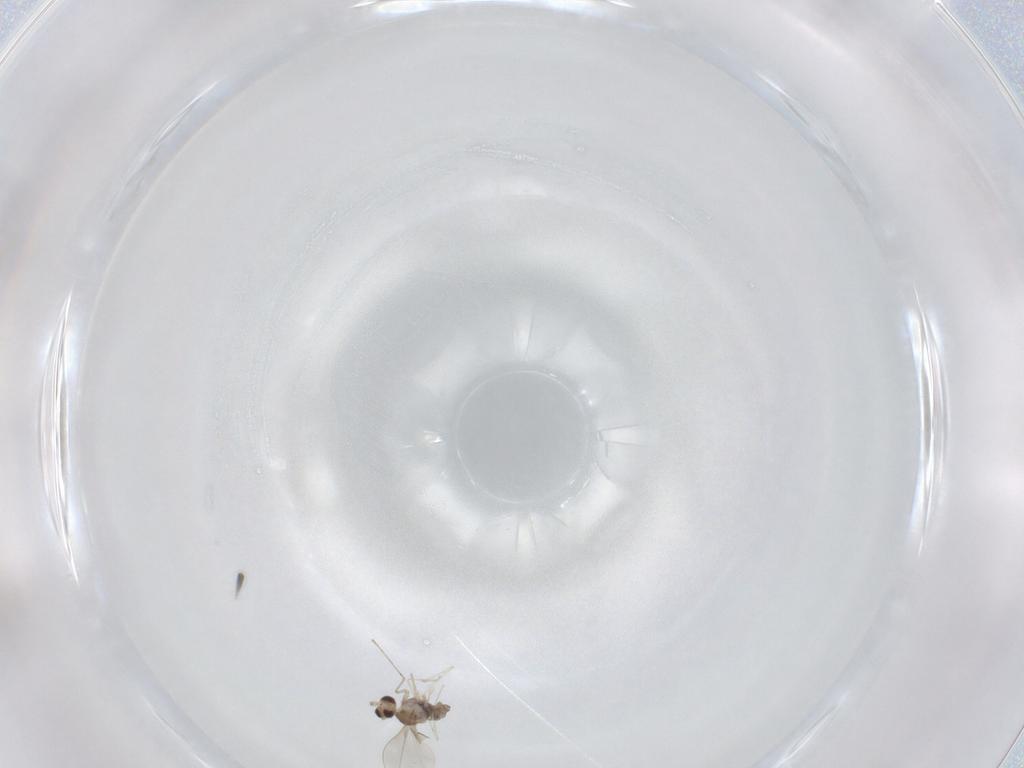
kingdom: Animalia
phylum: Arthropoda
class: Insecta
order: Diptera
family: Cecidomyiidae
